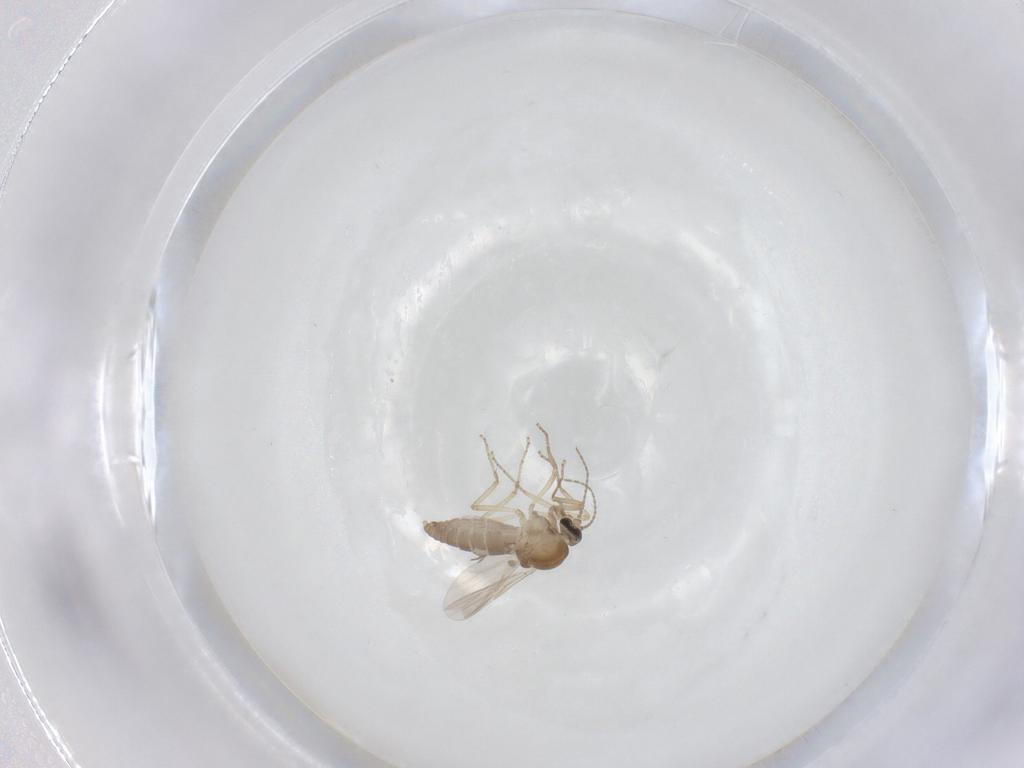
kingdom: Animalia
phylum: Arthropoda
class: Insecta
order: Diptera
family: Ceratopogonidae
